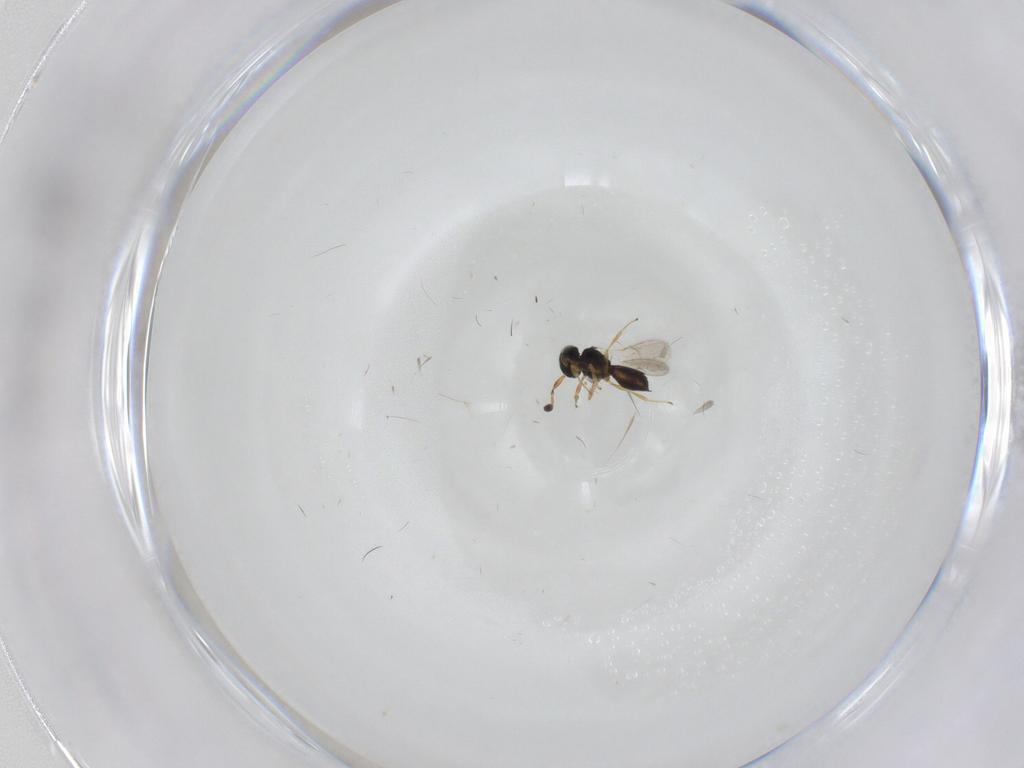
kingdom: Animalia
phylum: Arthropoda
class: Insecta
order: Hymenoptera
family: Scelionidae
